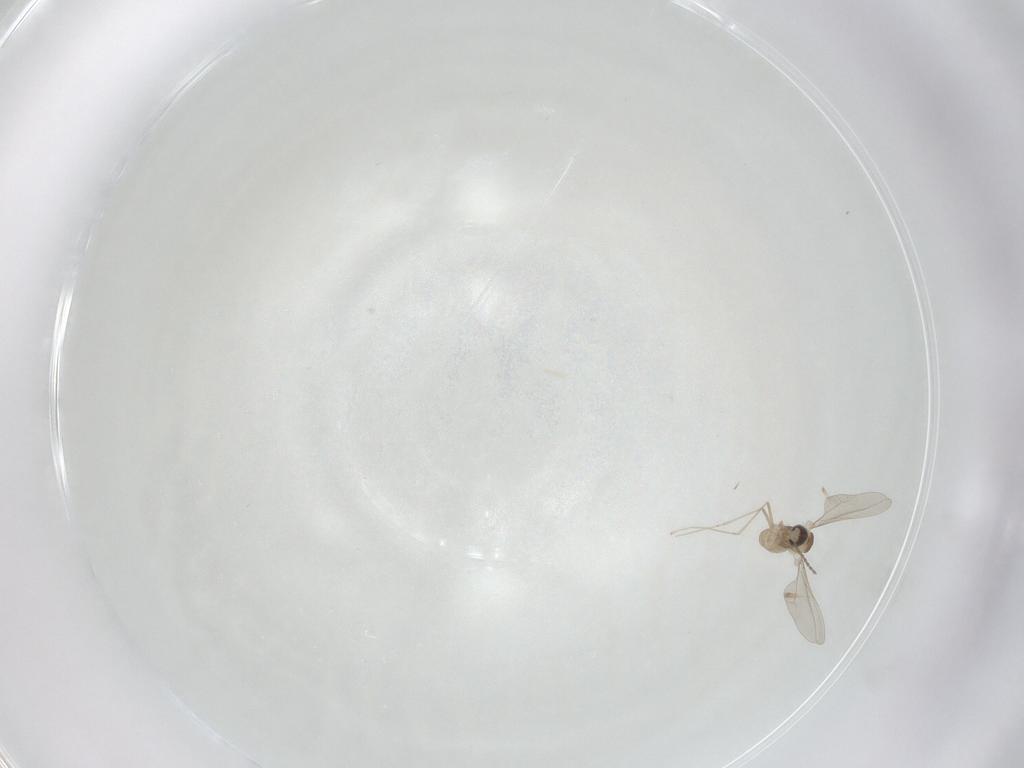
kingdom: Animalia
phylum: Arthropoda
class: Insecta
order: Diptera
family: Cecidomyiidae
